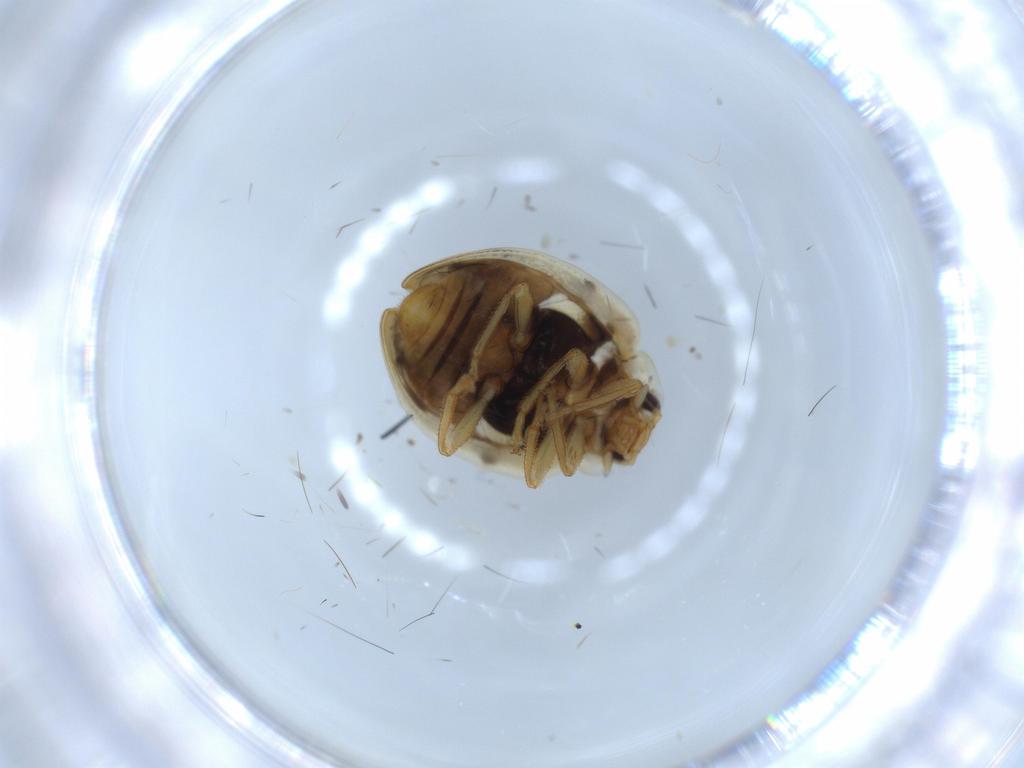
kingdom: Animalia
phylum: Arthropoda
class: Insecta
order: Coleoptera
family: Coccinellidae
